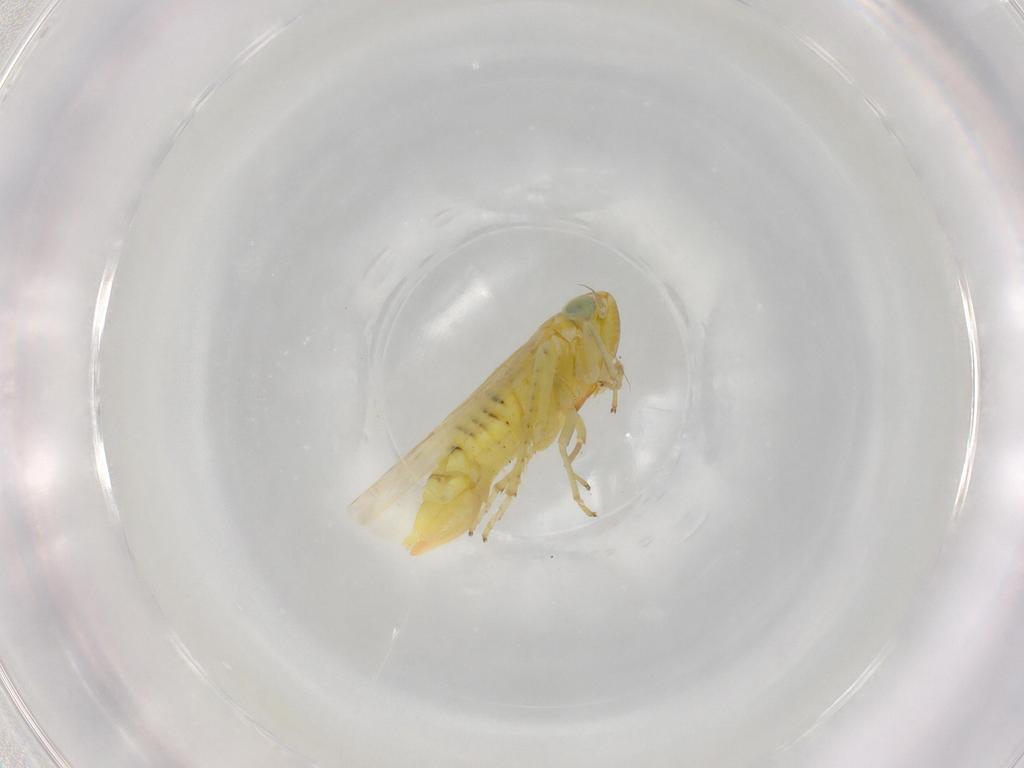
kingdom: Animalia
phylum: Arthropoda
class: Insecta
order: Hemiptera
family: Cicadellidae
